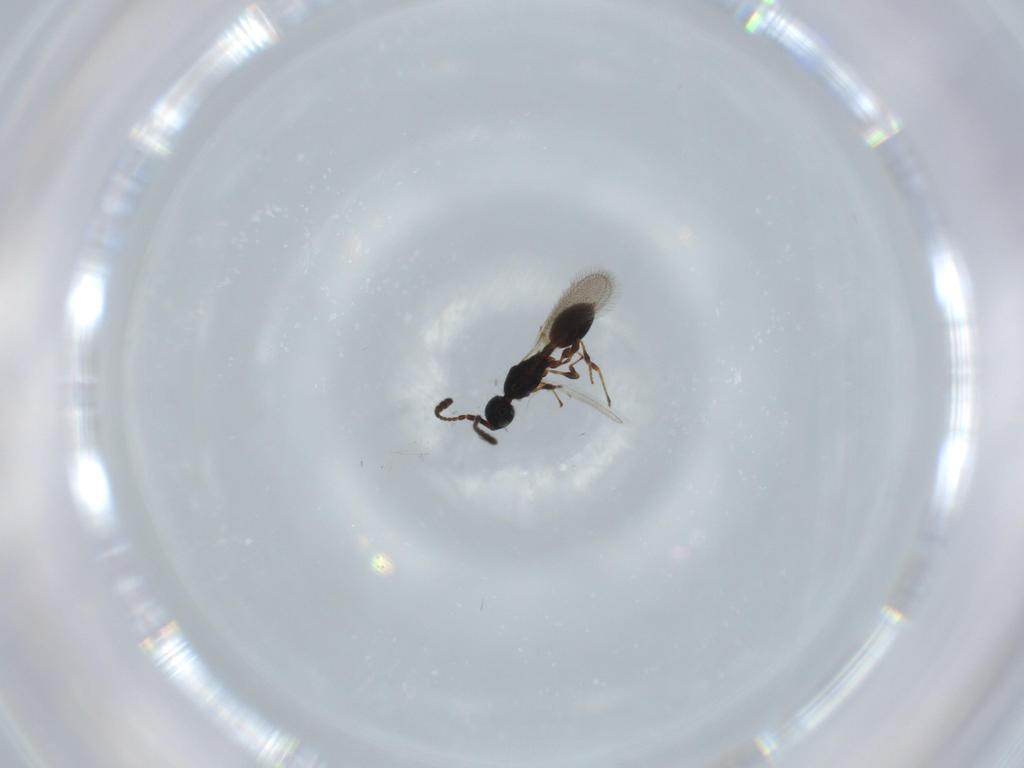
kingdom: Animalia
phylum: Arthropoda
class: Insecta
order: Hymenoptera
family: Diapriidae
